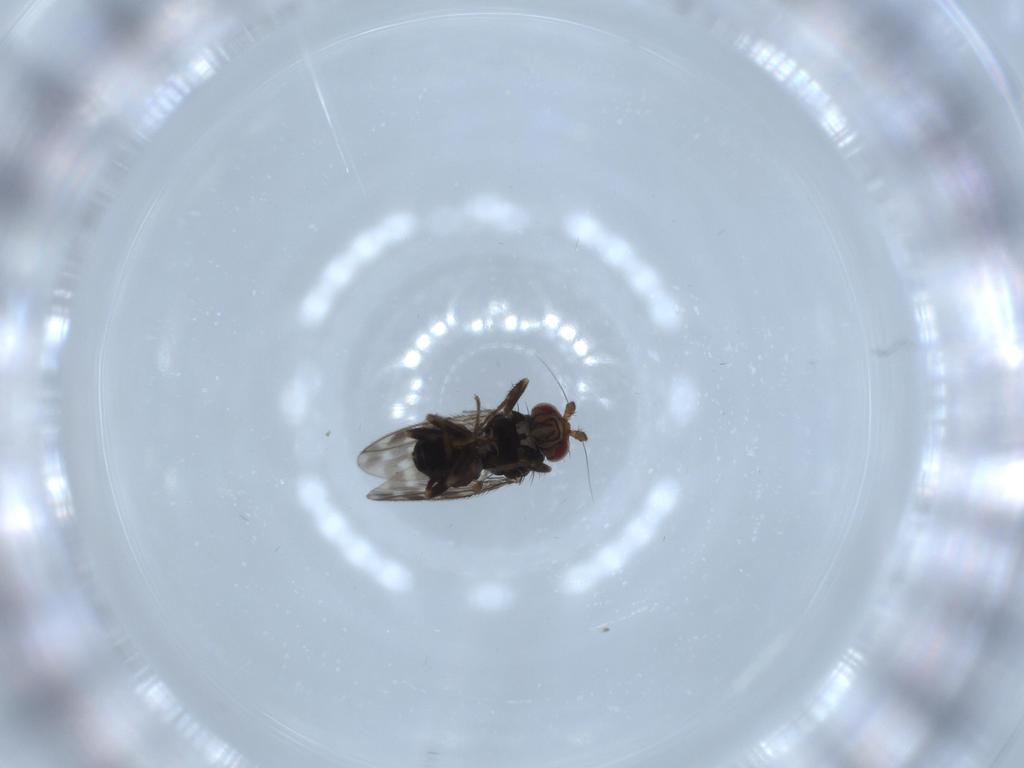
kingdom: Animalia
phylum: Arthropoda
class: Insecta
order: Diptera
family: Sphaeroceridae
